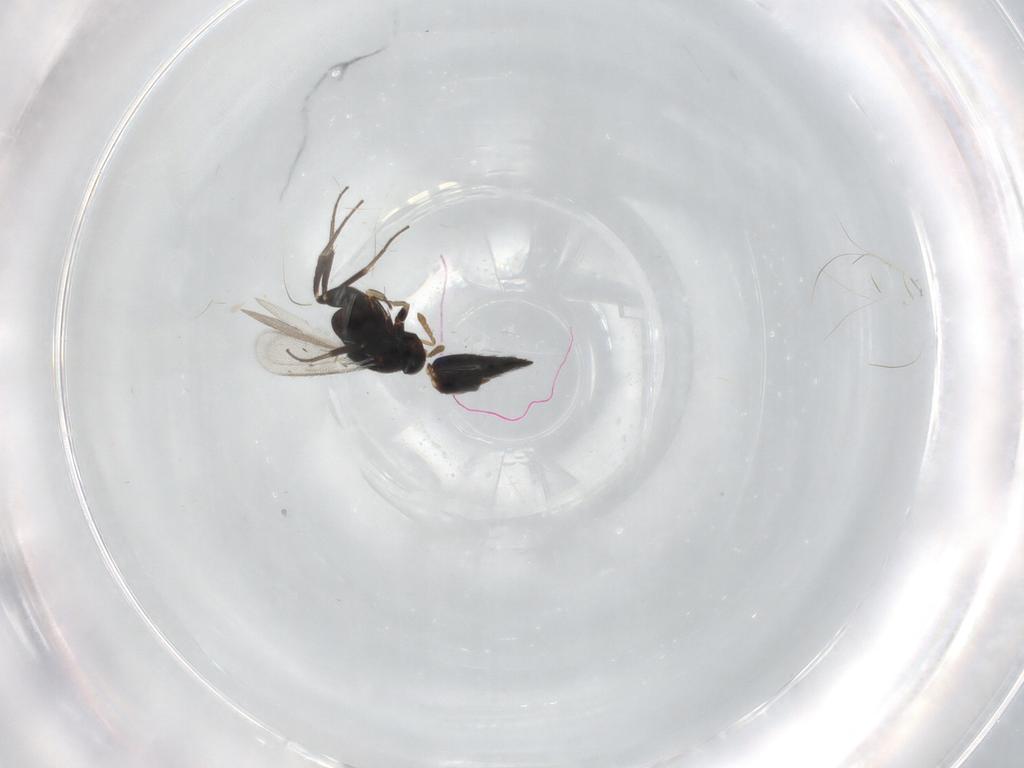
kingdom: Animalia
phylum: Arthropoda
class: Insecta
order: Hymenoptera
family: Eulophidae
